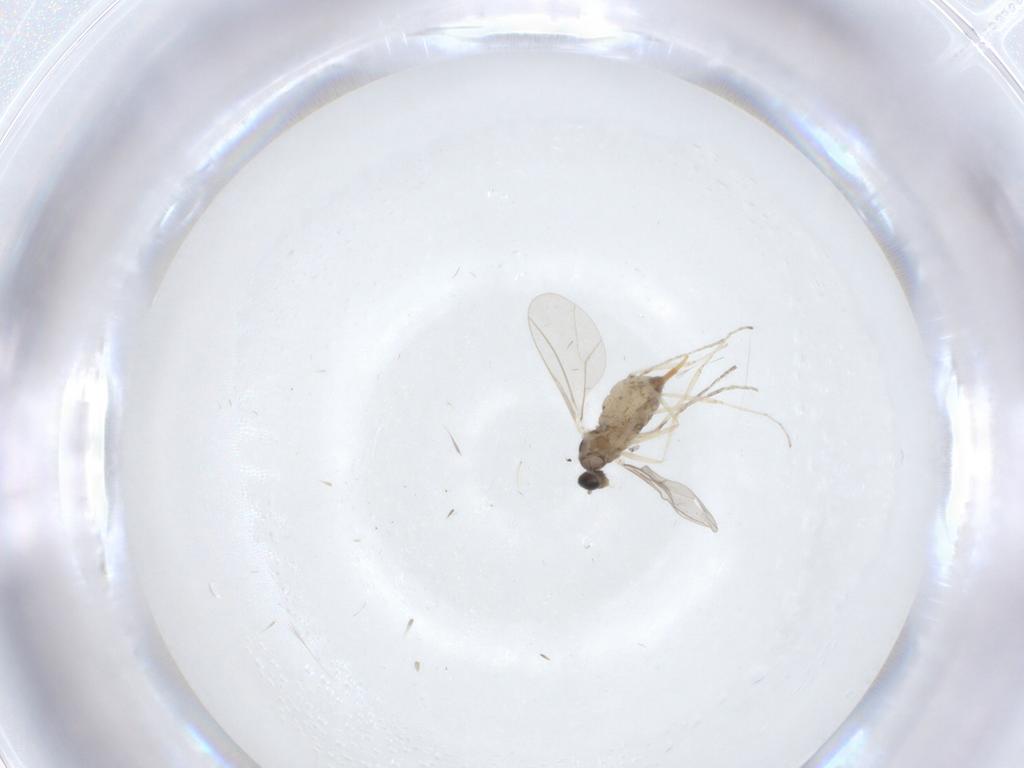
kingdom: Animalia
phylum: Arthropoda
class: Insecta
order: Diptera
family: Cecidomyiidae
